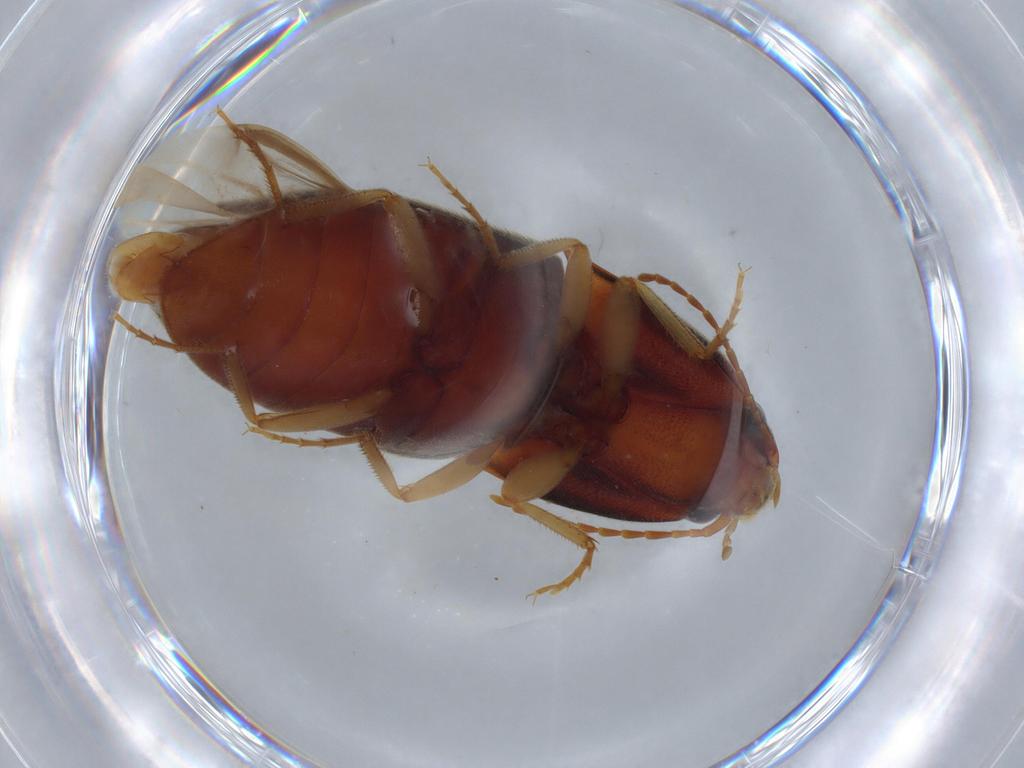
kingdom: Animalia
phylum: Arthropoda
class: Insecta
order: Coleoptera
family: Elateridae
